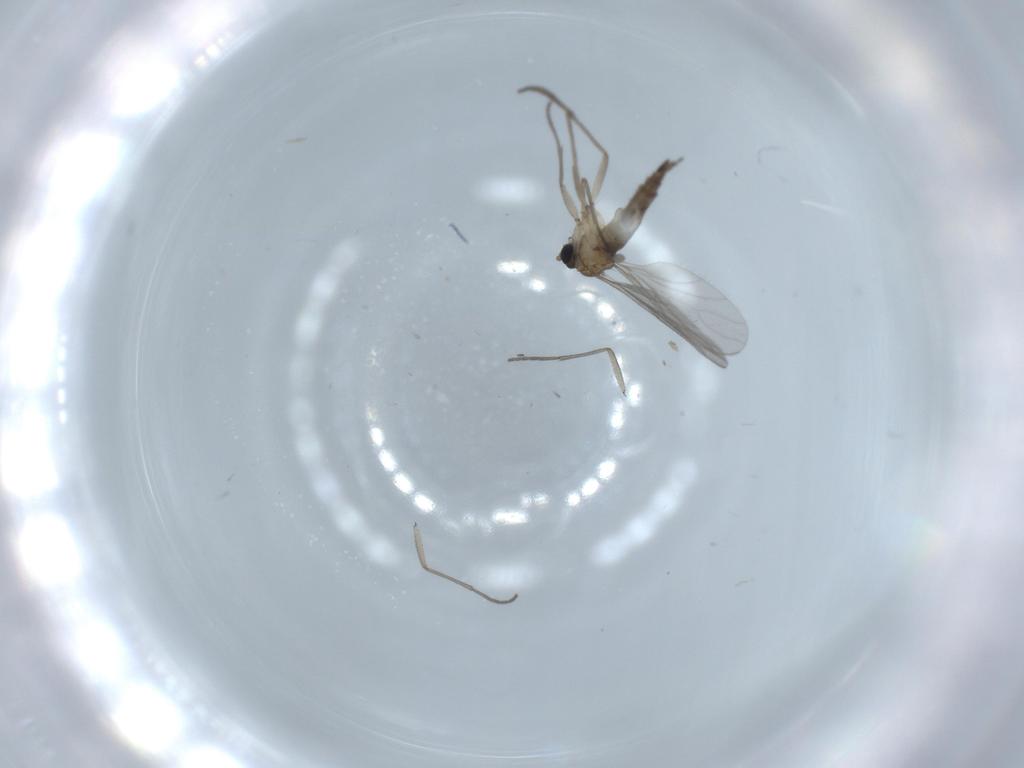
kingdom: Animalia
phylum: Arthropoda
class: Insecta
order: Diptera
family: Sciaridae
